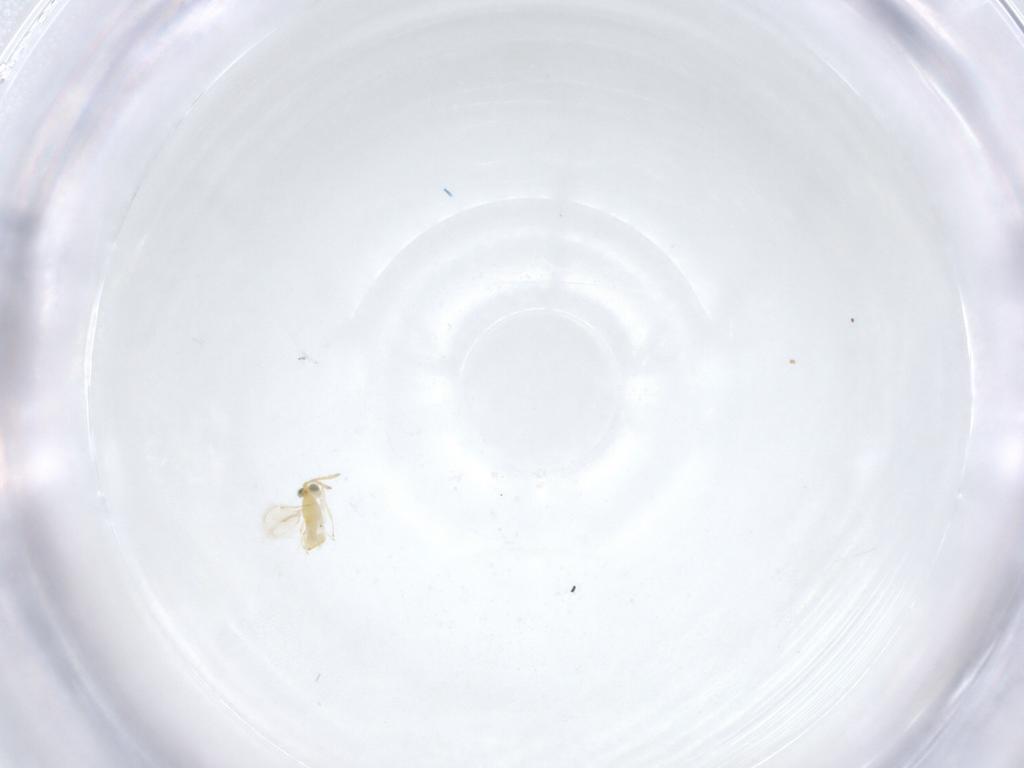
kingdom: Animalia
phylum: Arthropoda
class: Insecta
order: Hymenoptera
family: Aphelinidae
